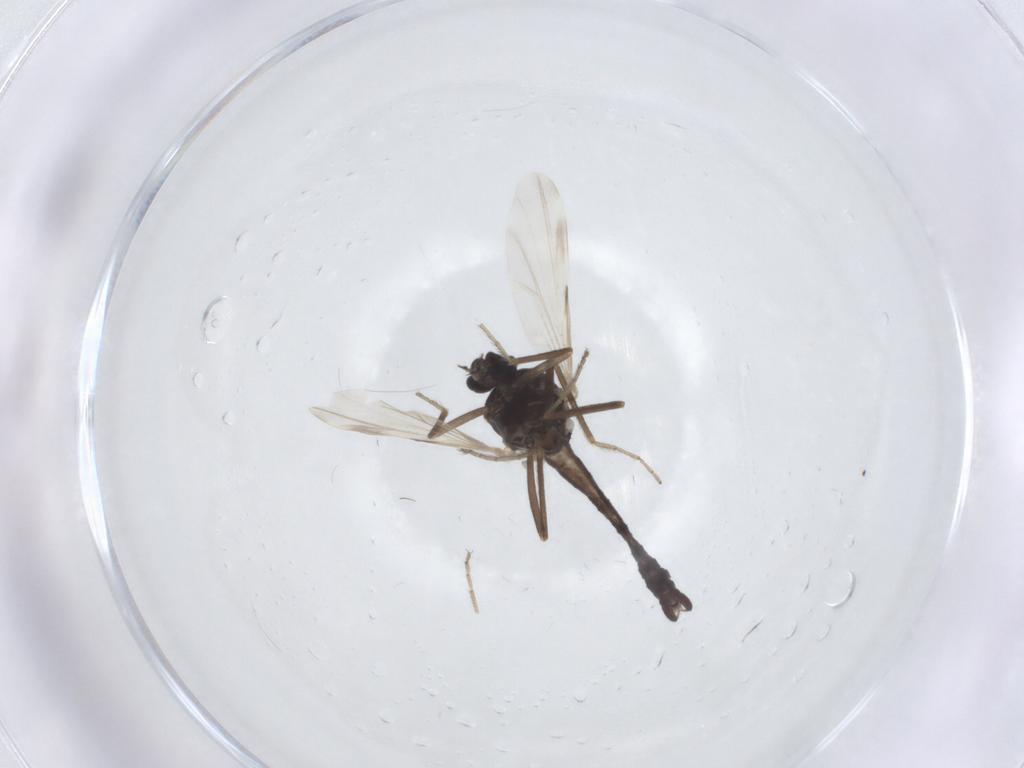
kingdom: Animalia
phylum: Arthropoda
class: Insecta
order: Diptera
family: Ceratopogonidae
